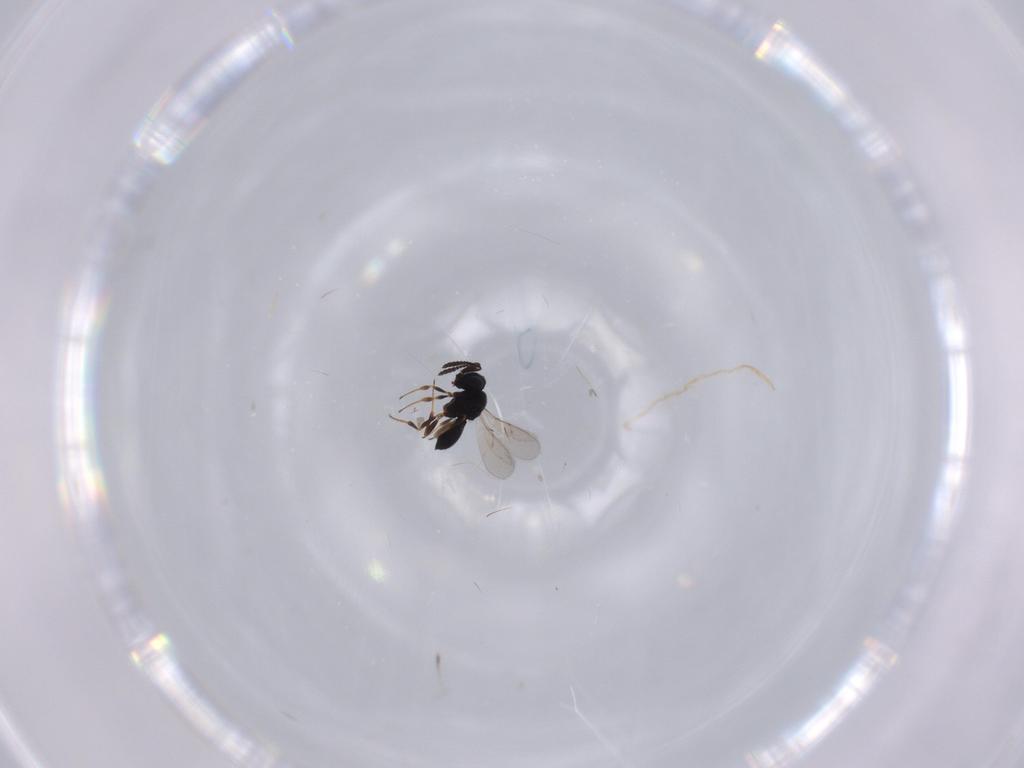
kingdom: Animalia
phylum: Arthropoda
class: Insecta
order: Hymenoptera
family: Scelionidae
